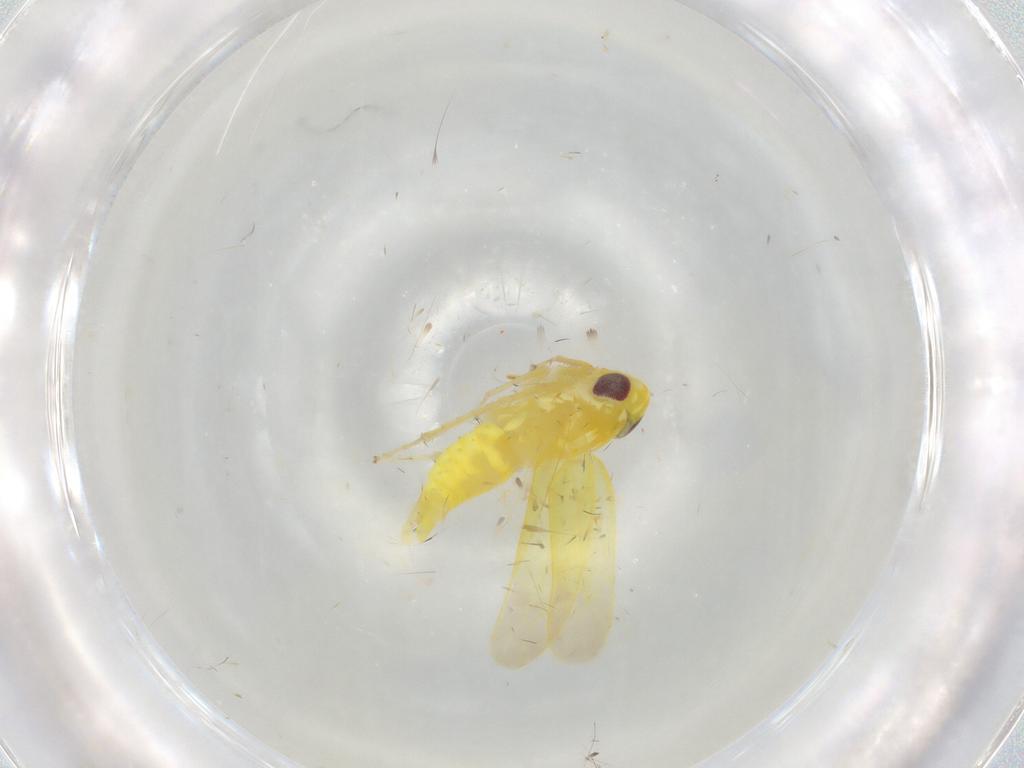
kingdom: Animalia
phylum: Arthropoda
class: Insecta
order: Hemiptera
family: Cicadellidae
